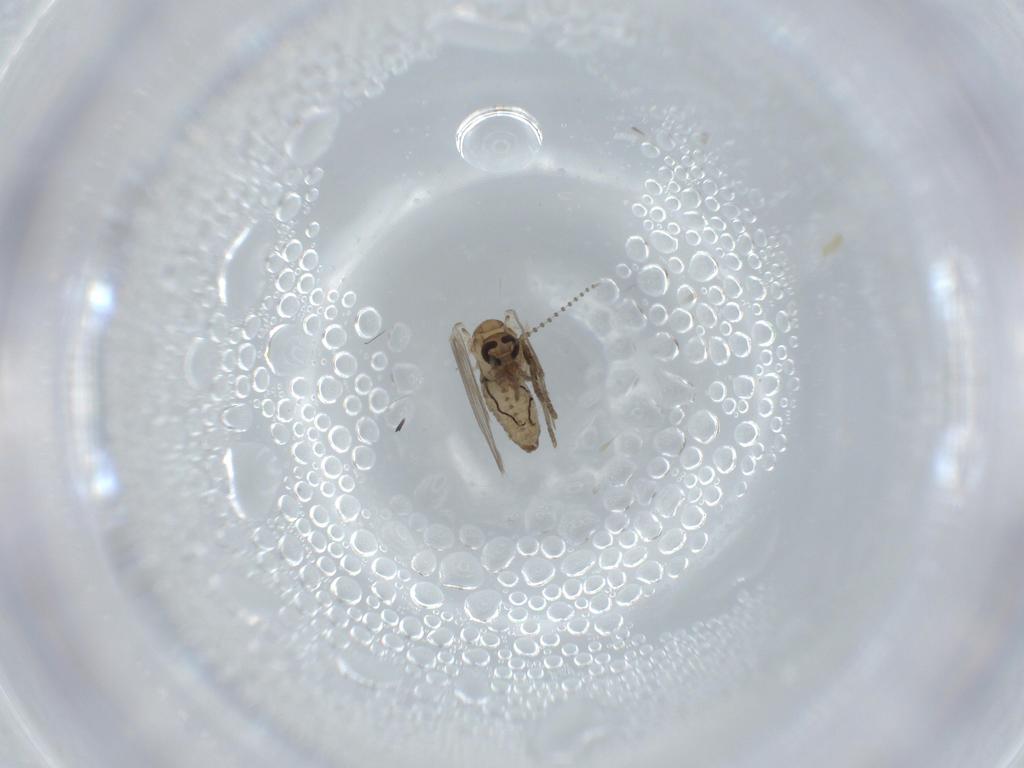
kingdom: Animalia
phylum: Arthropoda
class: Insecta
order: Diptera
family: Psychodidae
